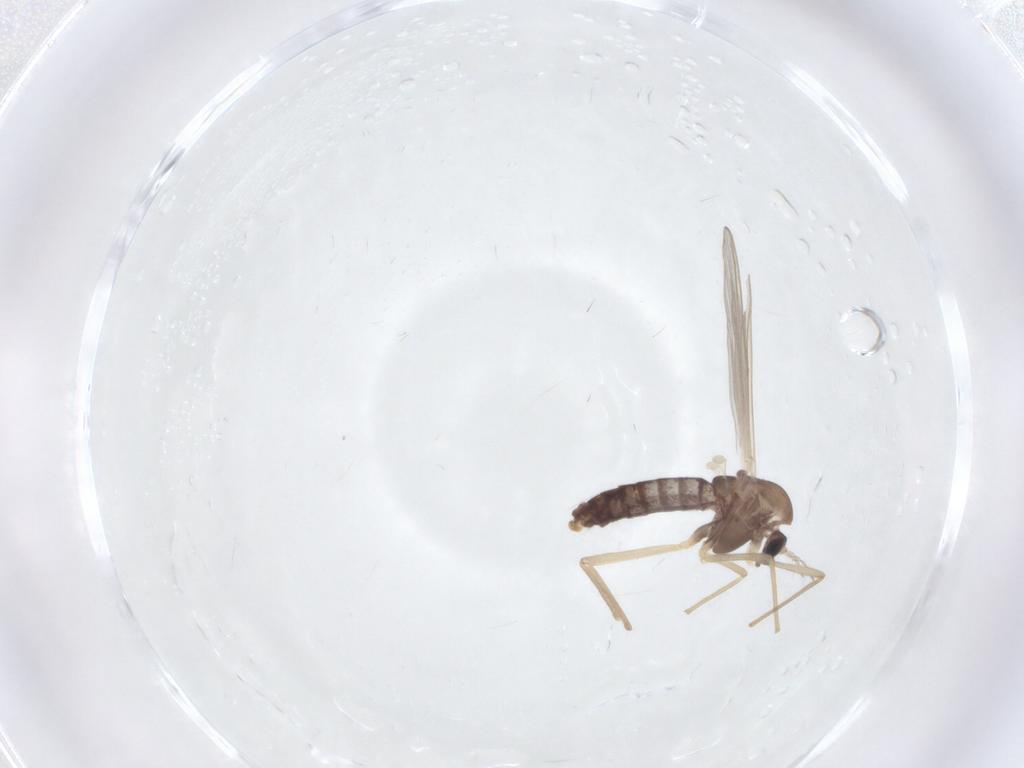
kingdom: Animalia
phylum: Arthropoda
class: Insecta
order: Diptera
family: Chironomidae
